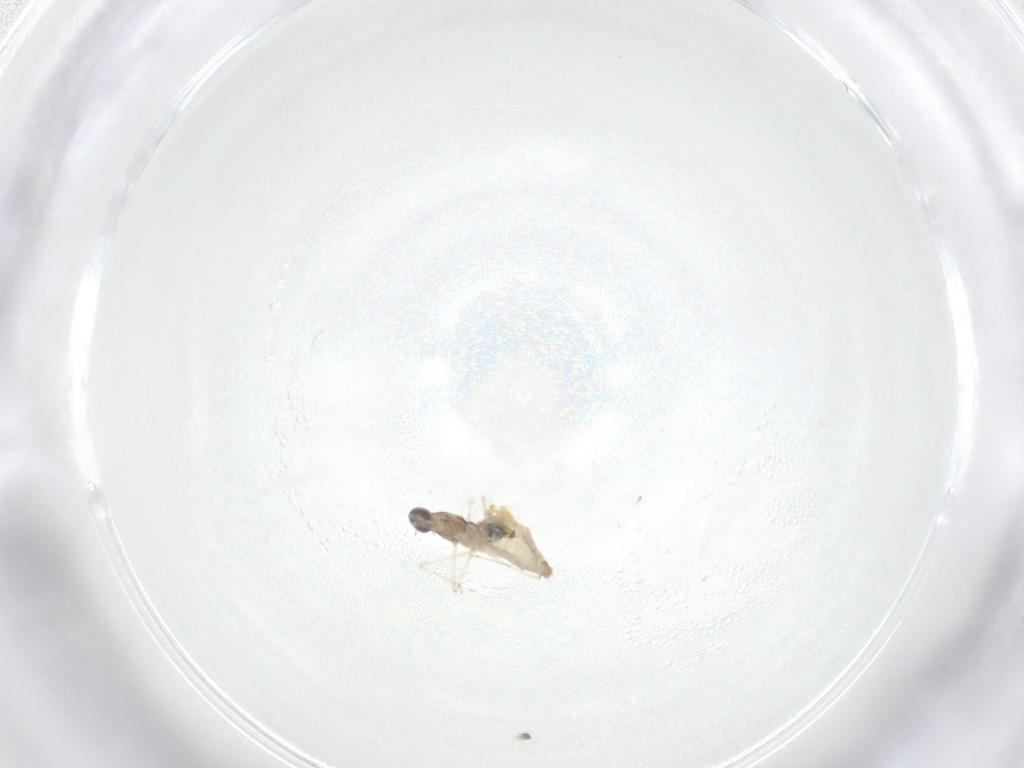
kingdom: Animalia
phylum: Arthropoda
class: Insecta
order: Diptera
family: Cecidomyiidae
